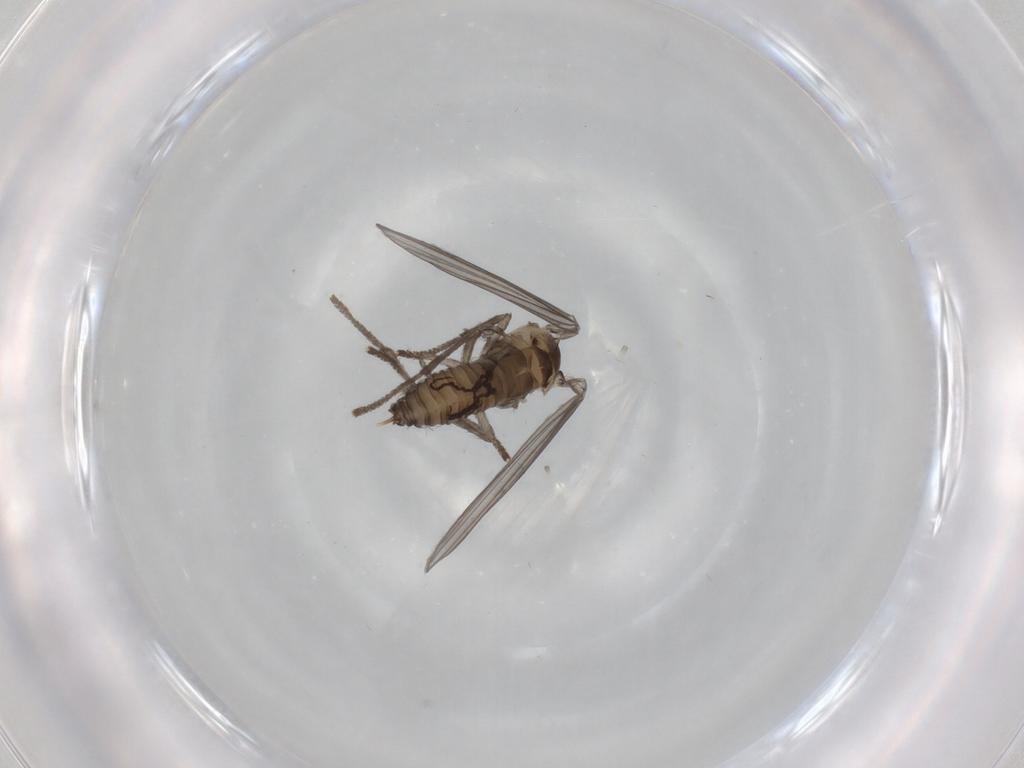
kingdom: Animalia
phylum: Arthropoda
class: Insecta
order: Diptera
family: Psychodidae
